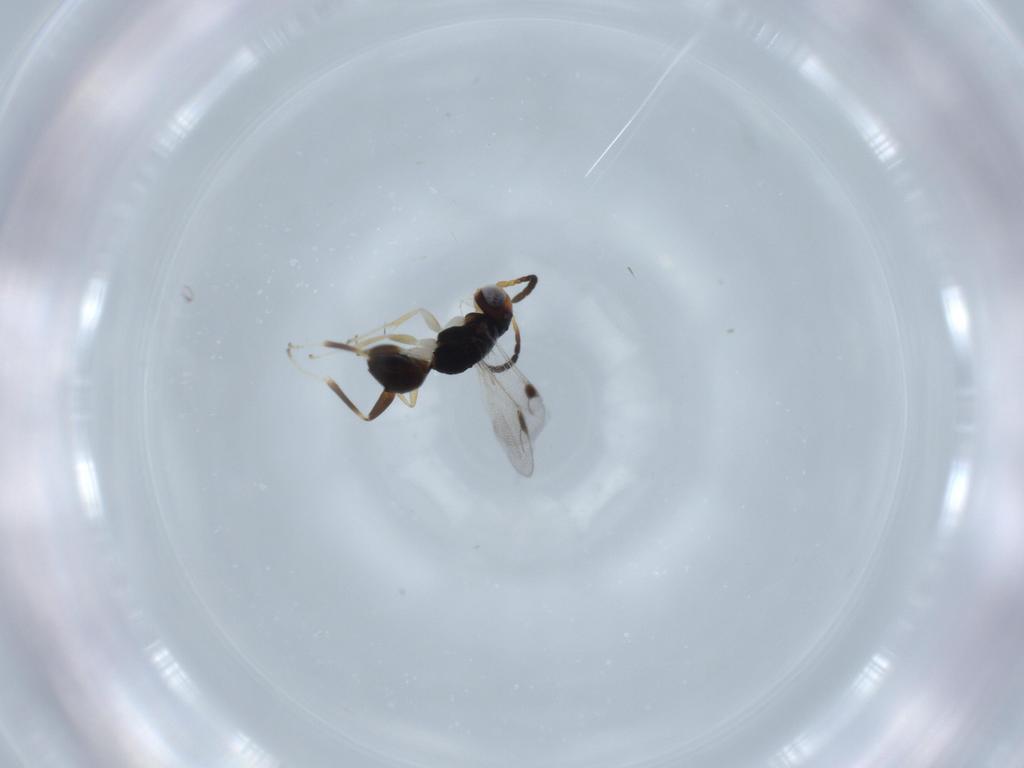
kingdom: Animalia
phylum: Arthropoda
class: Insecta
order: Hymenoptera
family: Dryinidae
